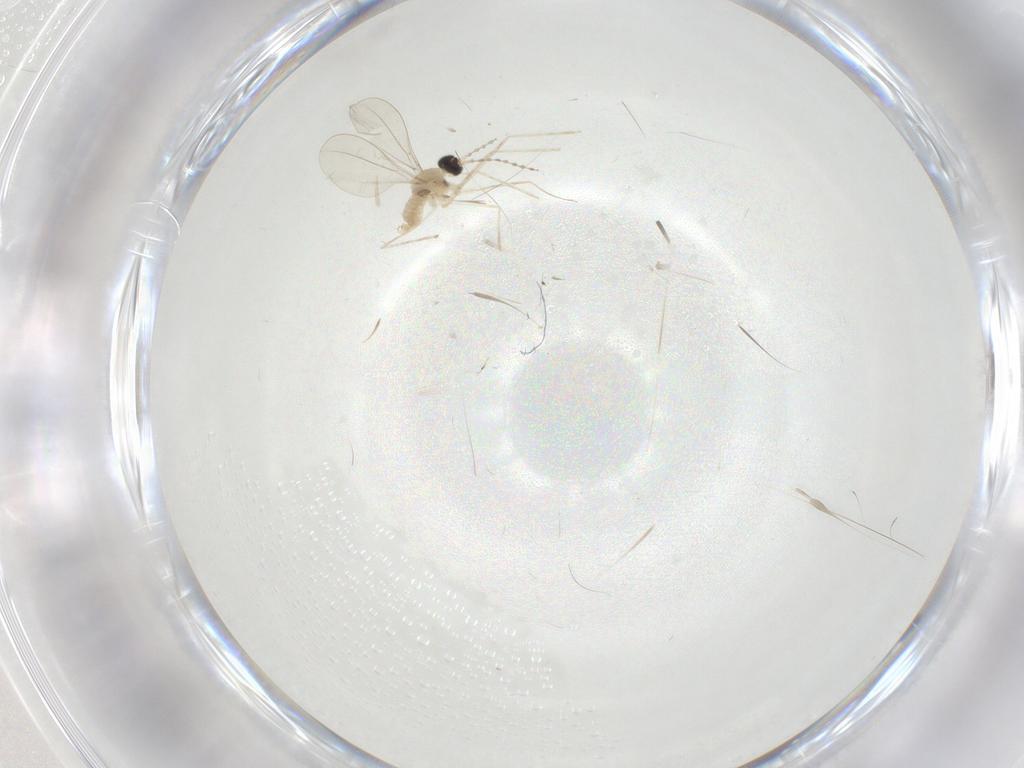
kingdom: Animalia
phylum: Arthropoda
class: Insecta
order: Diptera
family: Cecidomyiidae
